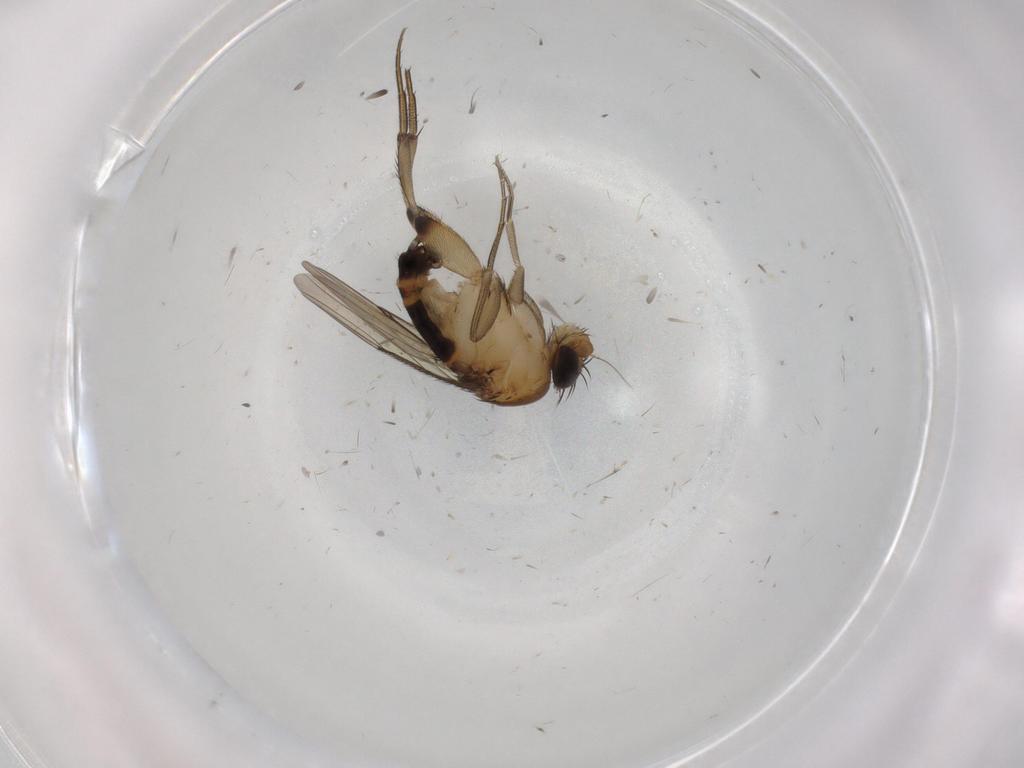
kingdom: Animalia
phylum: Arthropoda
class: Insecta
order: Diptera
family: Phoridae
